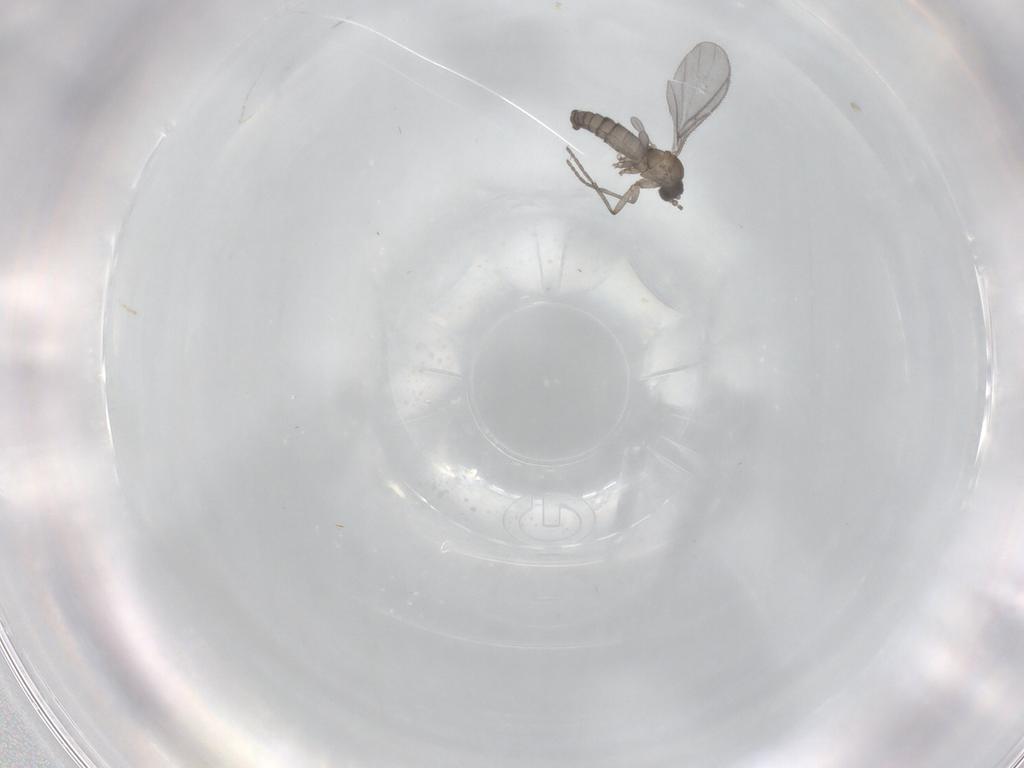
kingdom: Animalia
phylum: Arthropoda
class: Insecta
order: Diptera
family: Sciaridae
